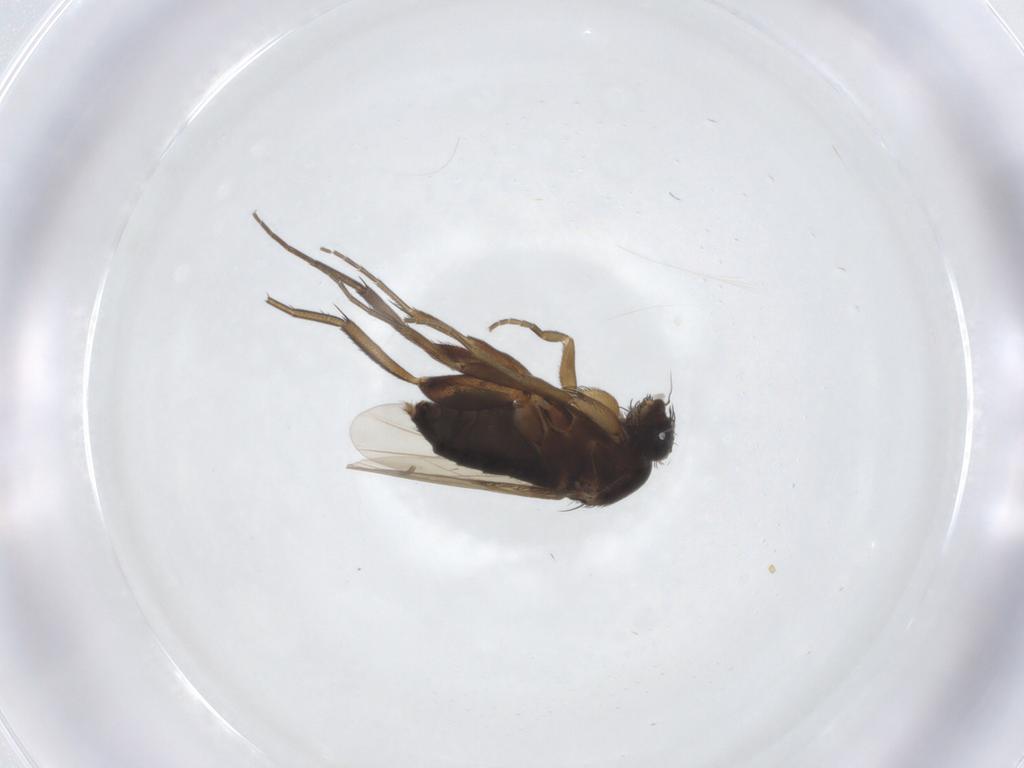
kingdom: Animalia
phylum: Arthropoda
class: Insecta
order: Diptera
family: Phoridae
